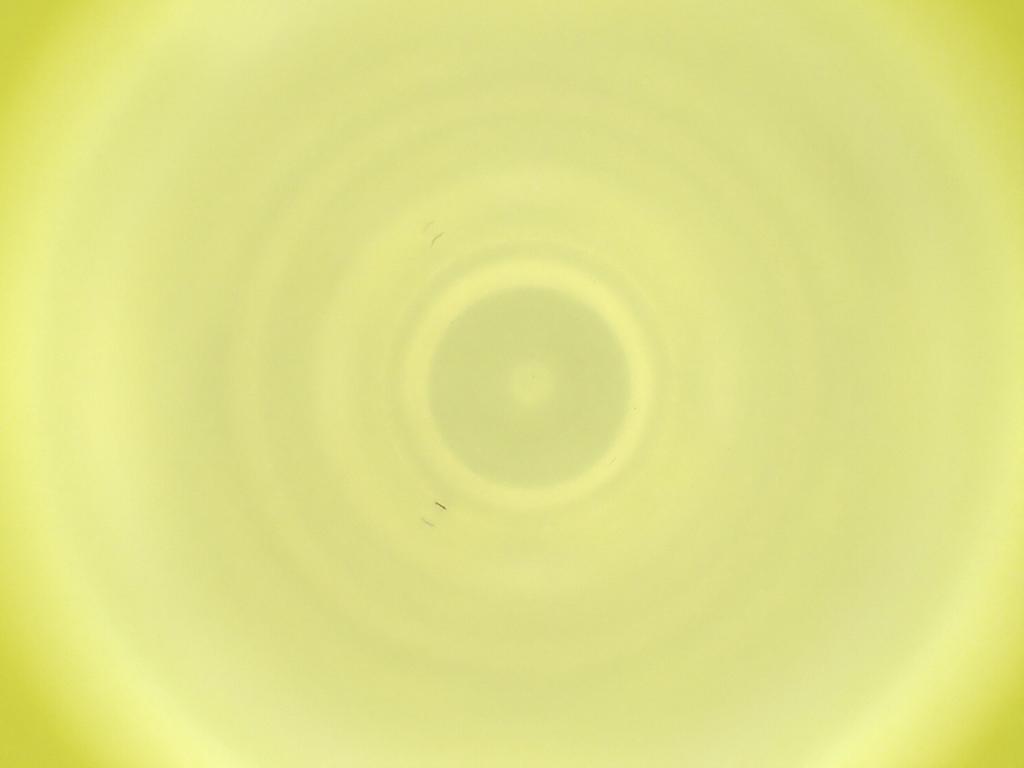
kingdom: Animalia
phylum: Arthropoda
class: Insecta
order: Diptera
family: Cecidomyiidae
